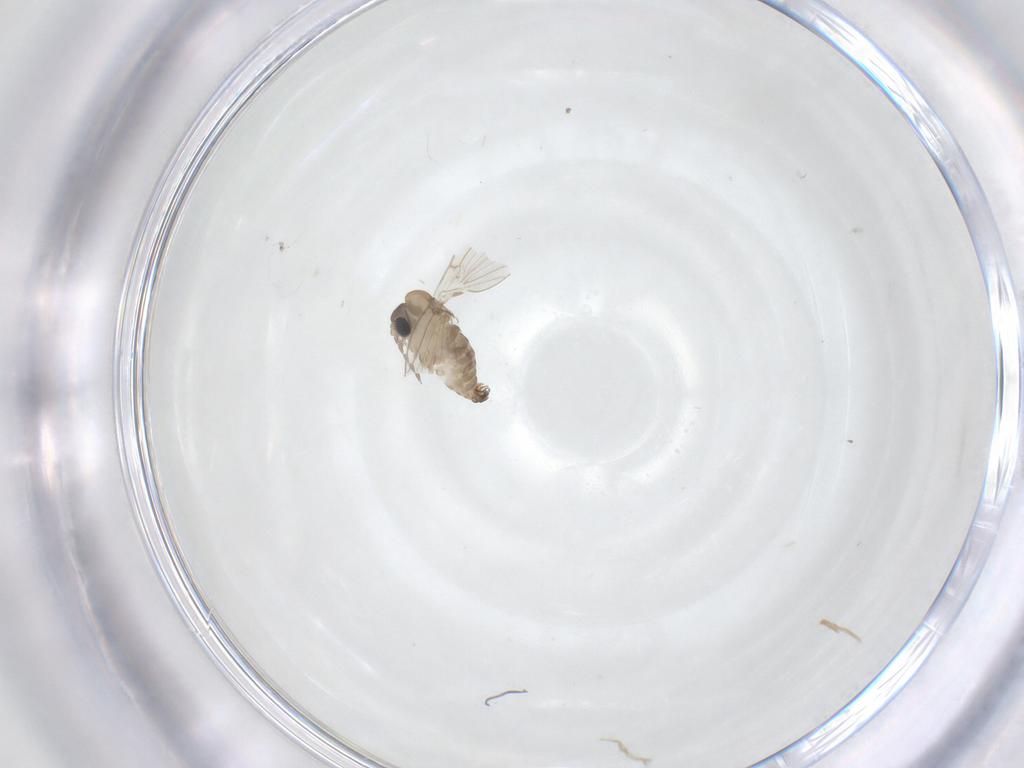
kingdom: Animalia
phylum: Arthropoda
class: Insecta
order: Diptera
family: Psychodidae
